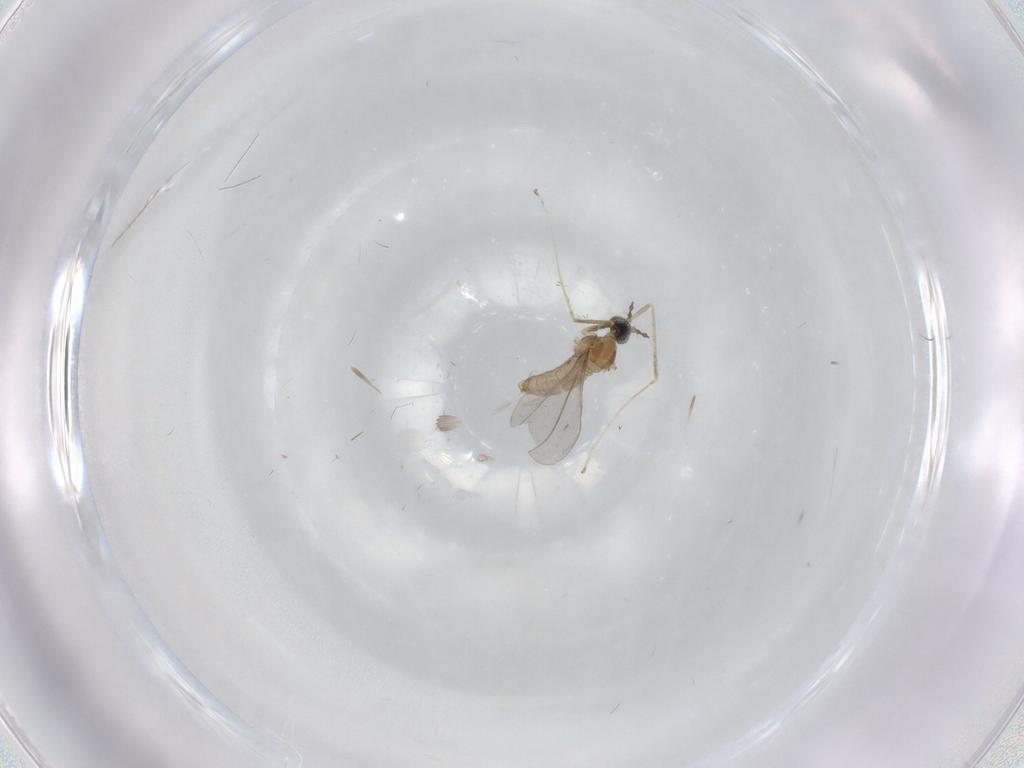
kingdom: Animalia
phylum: Arthropoda
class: Insecta
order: Diptera
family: Cecidomyiidae
